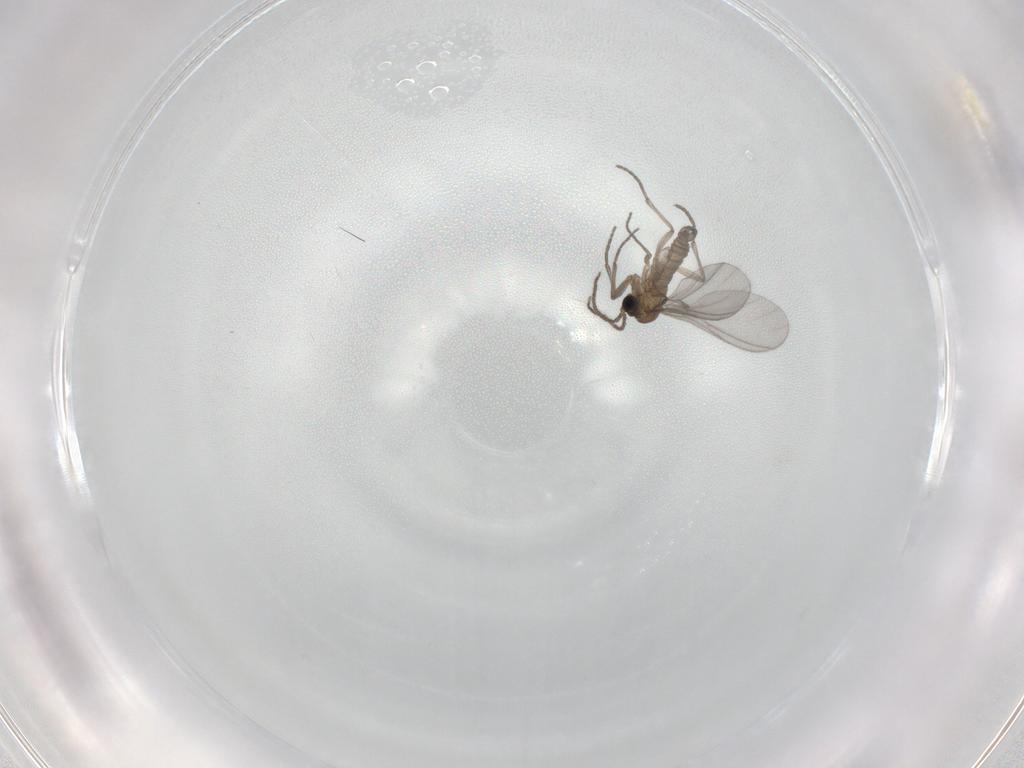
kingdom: Animalia
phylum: Arthropoda
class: Insecta
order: Diptera
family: Sciaridae
